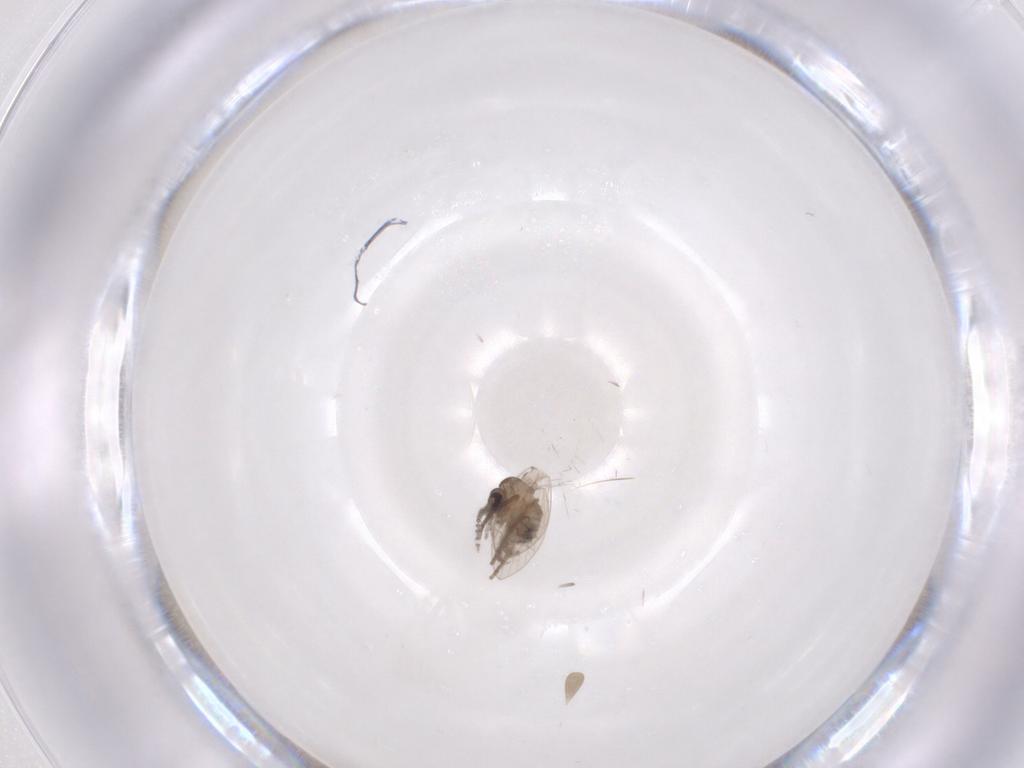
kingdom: Animalia
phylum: Arthropoda
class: Insecta
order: Diptera
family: Psychodidae
